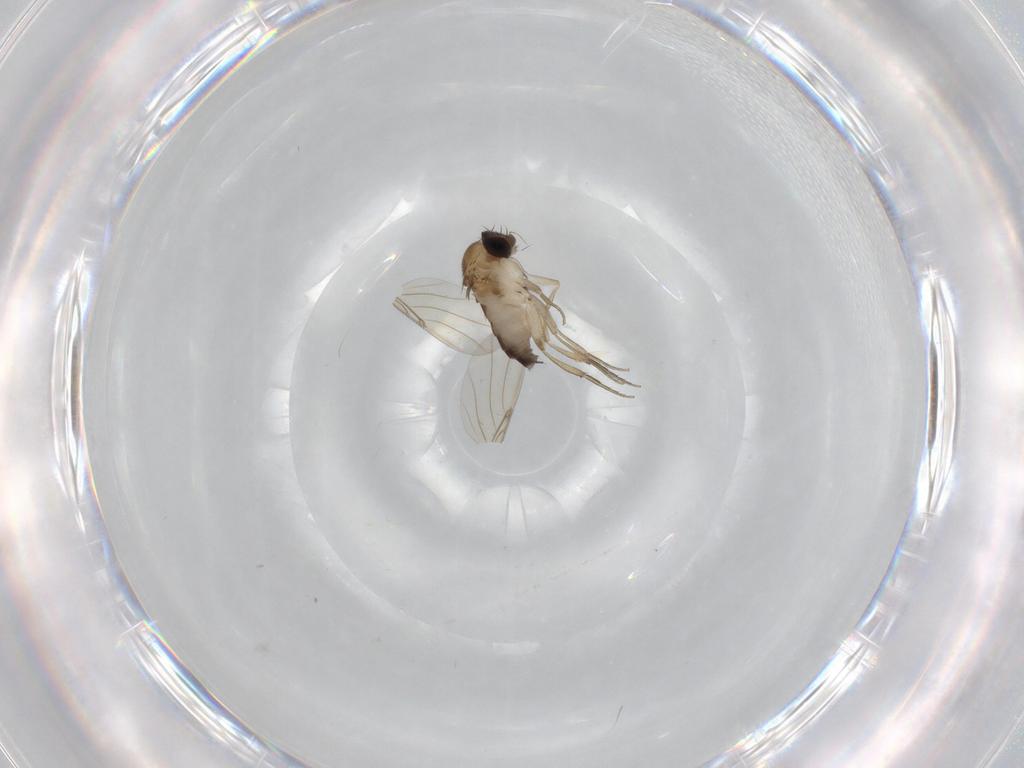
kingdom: Animalia
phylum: Arthropoda
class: Insecta
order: Diptera
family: Phoridae
